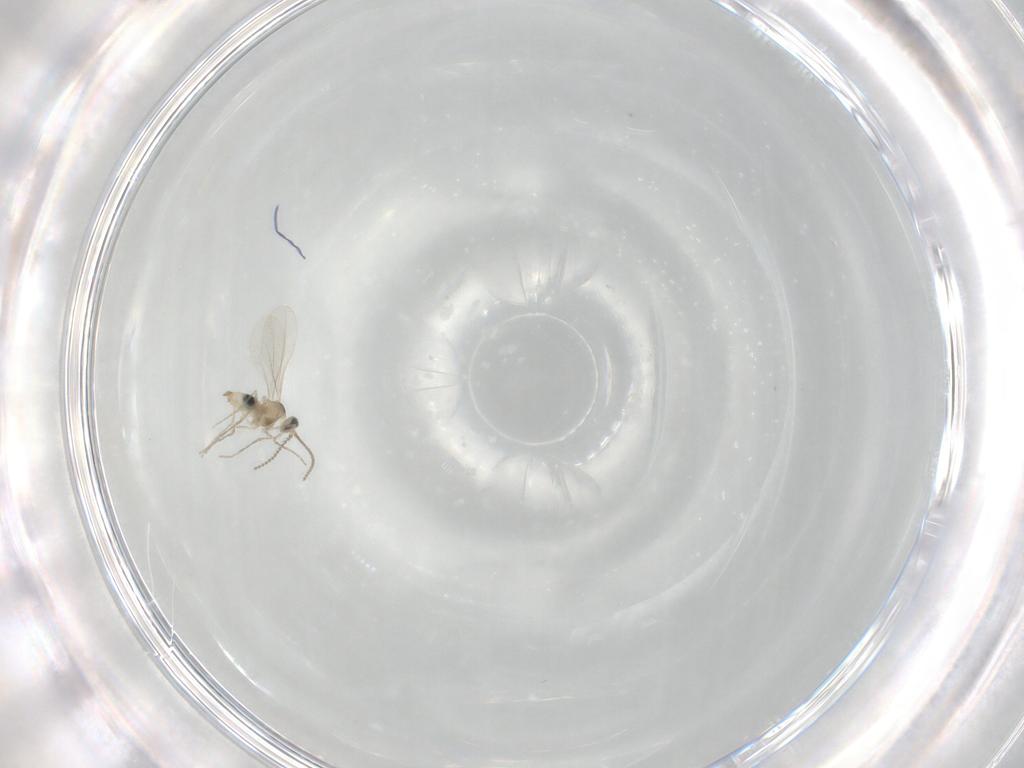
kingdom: Animalia
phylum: Arthropoda
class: Insecta
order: Diptera
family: Cecidomyiidae
